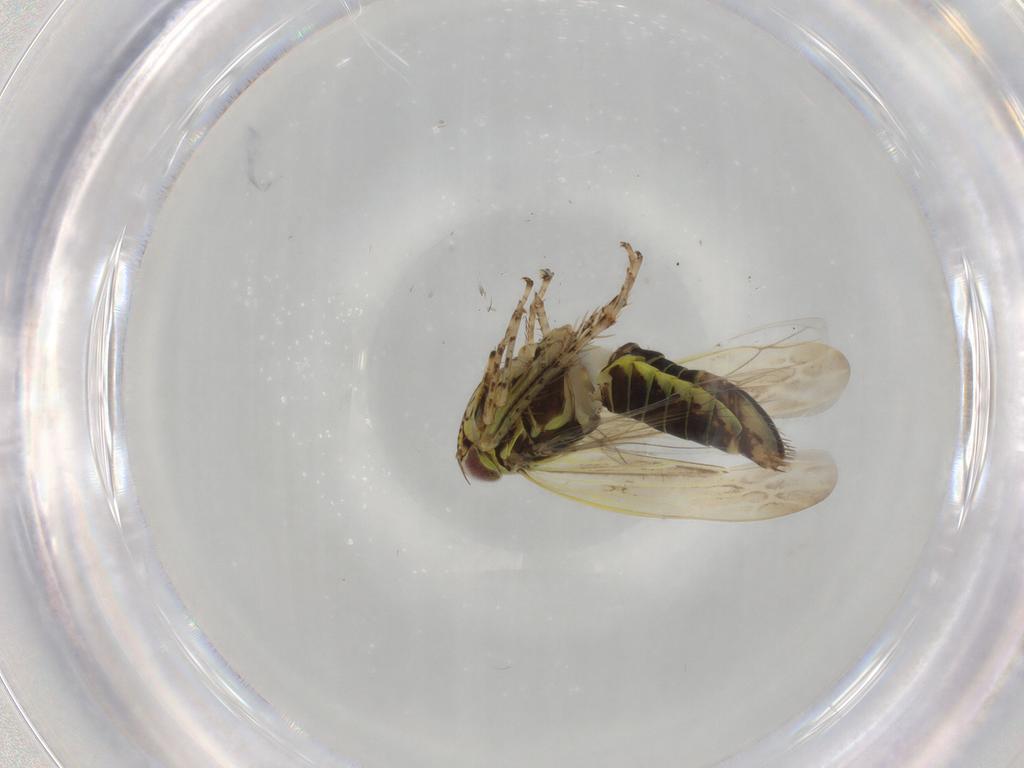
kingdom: Animalia
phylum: Arthropoda
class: Insecta
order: Hemiptera
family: Cicadellidae
